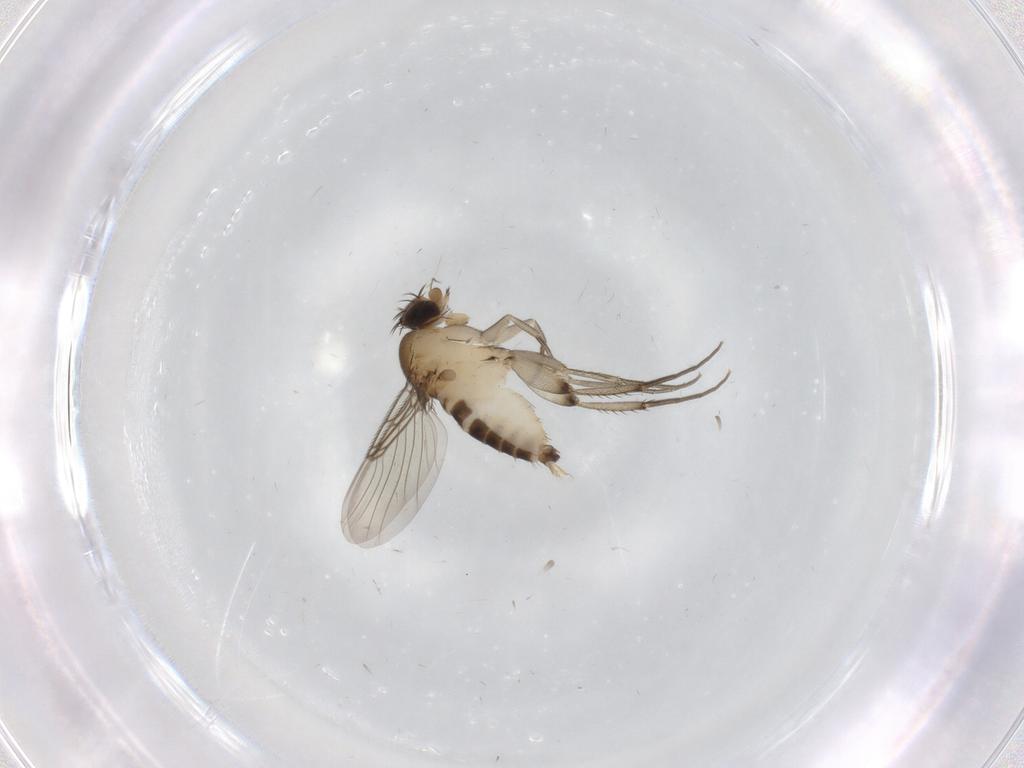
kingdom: Animalia
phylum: Arthropoda
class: Insecta
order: Diptera
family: Phoridae
